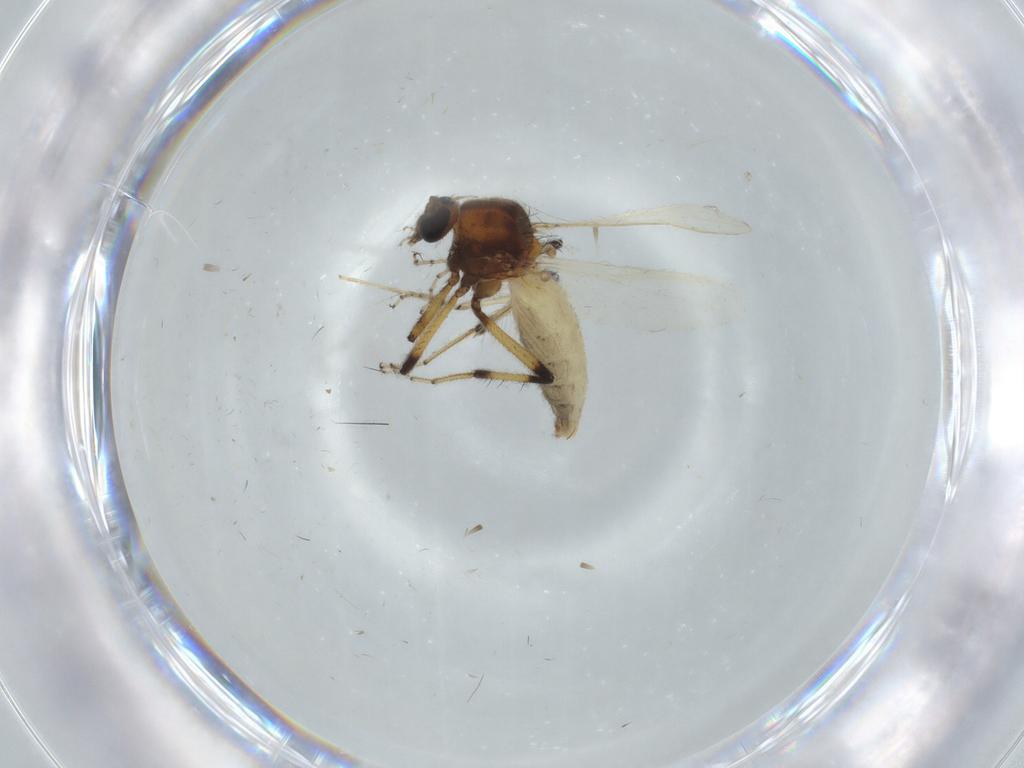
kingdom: Animalia
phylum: Arthropoda
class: Insecta
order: Diptera
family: Ceratopogonidae
